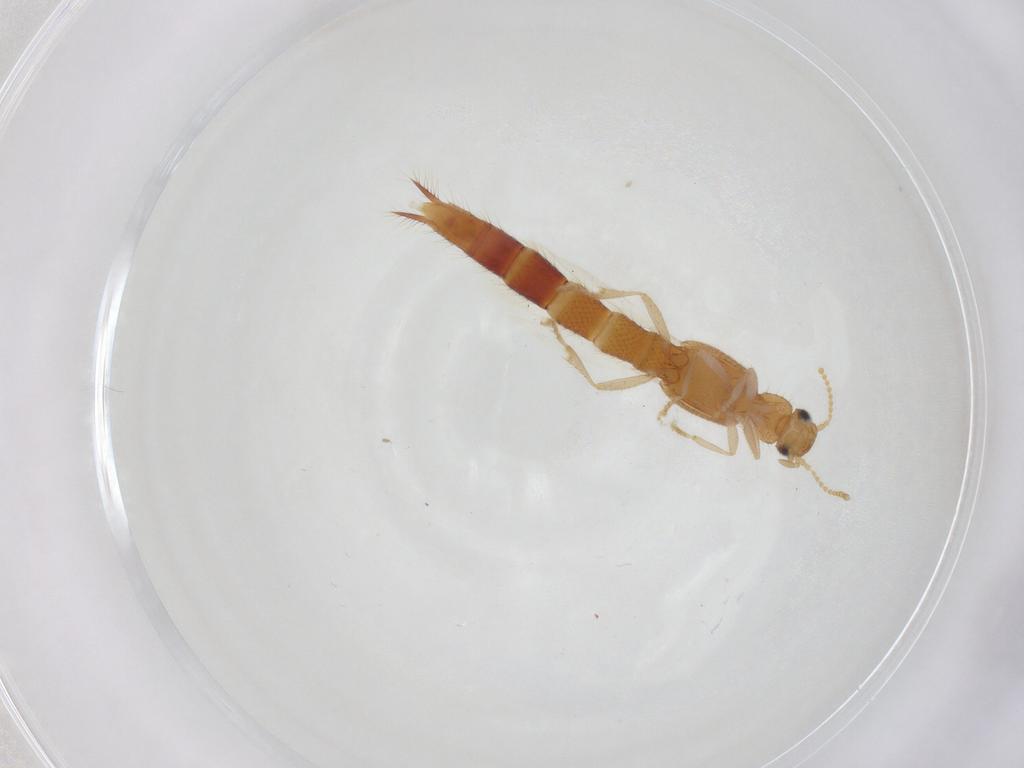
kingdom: Animalia
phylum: Arthropoda
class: Insecta
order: Coleoptera
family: Staphylinidae
